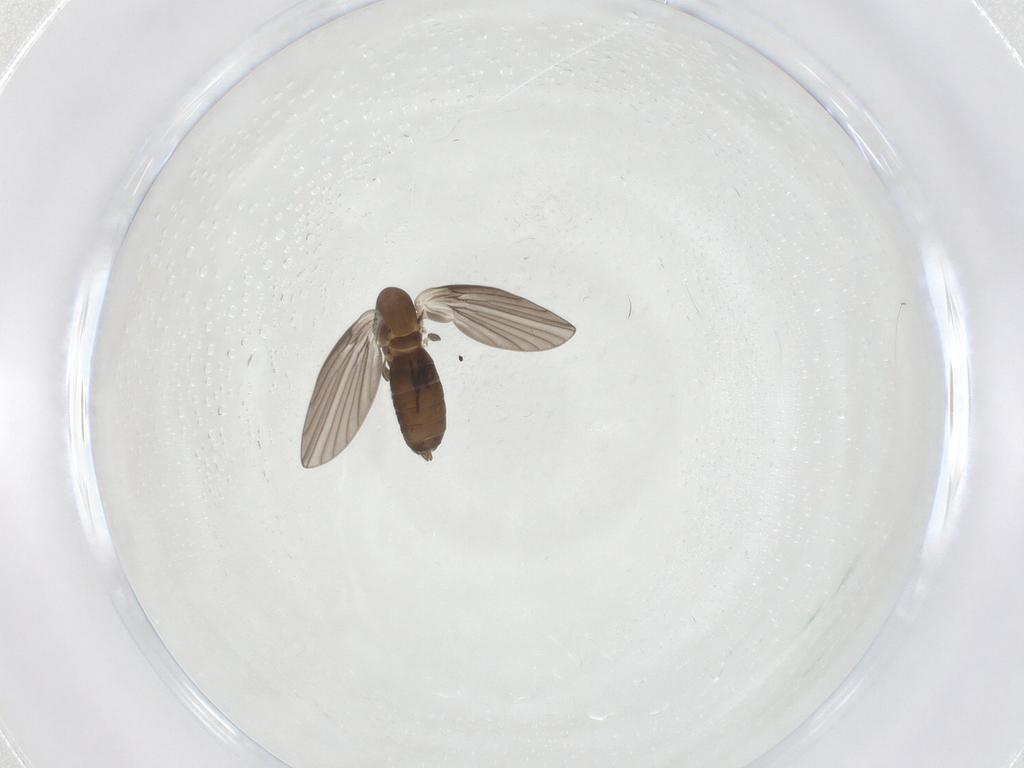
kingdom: Animalia
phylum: Arthropoda
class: Insecta
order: Diptera
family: Psychodidae
